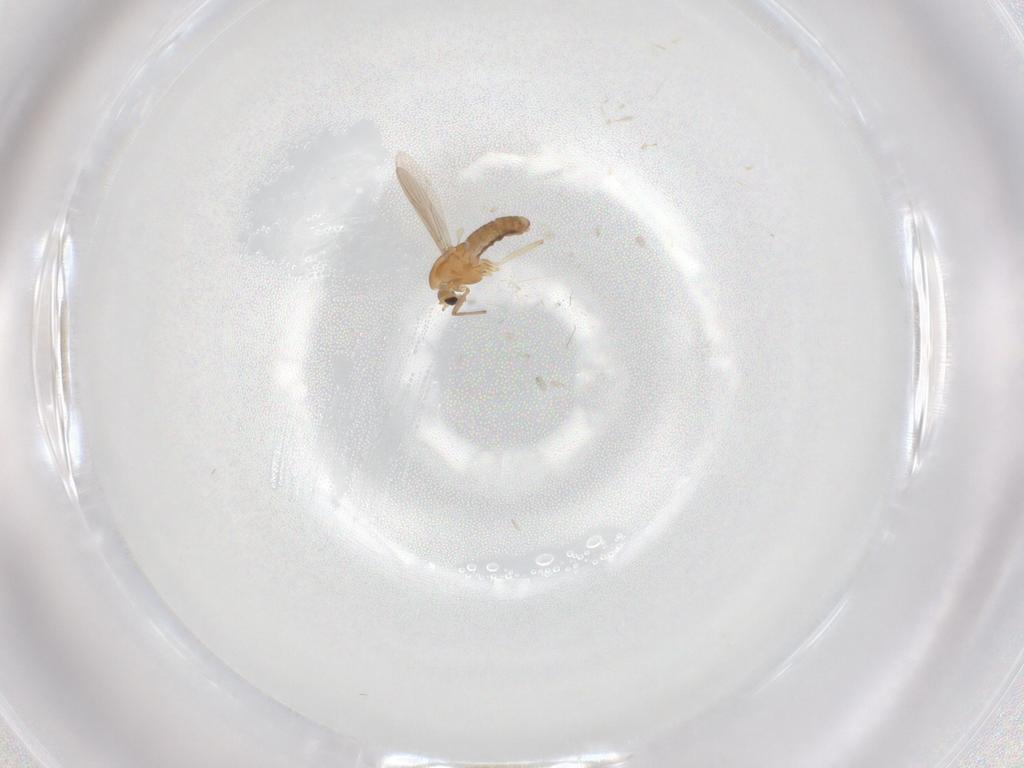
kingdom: Animalia
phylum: Arthropoda
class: Insecta
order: Diptera
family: Chironomidae
